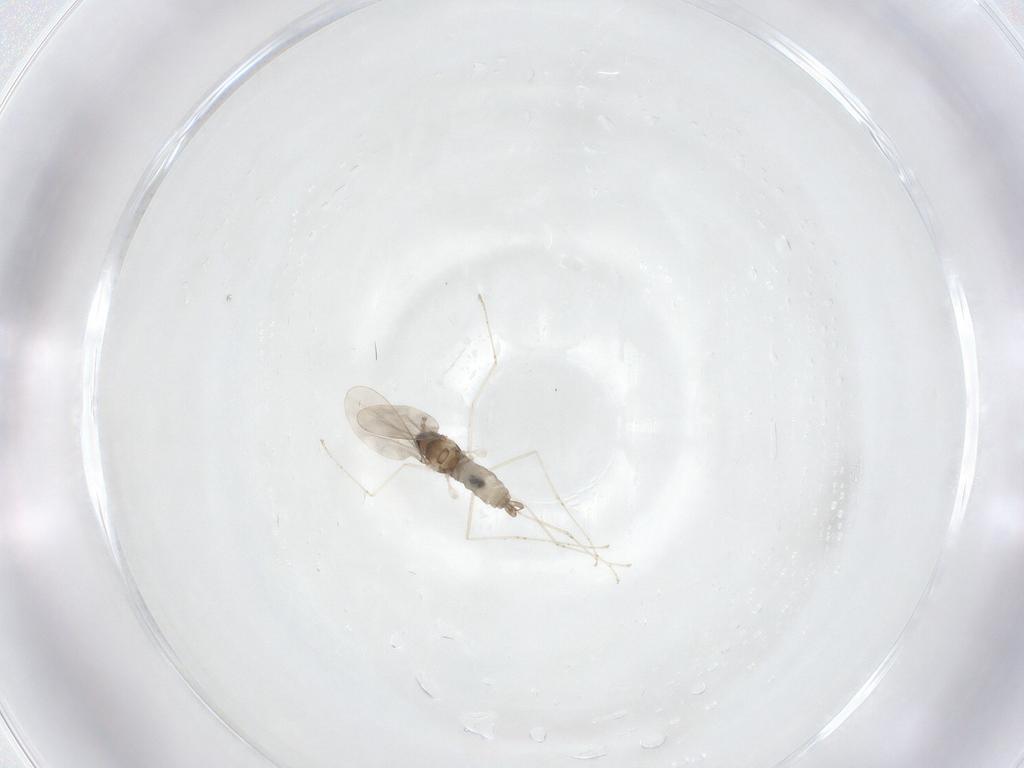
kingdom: Animalia
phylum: Arthropoda
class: Insecta
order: Diptera
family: Cecidomyiidae
